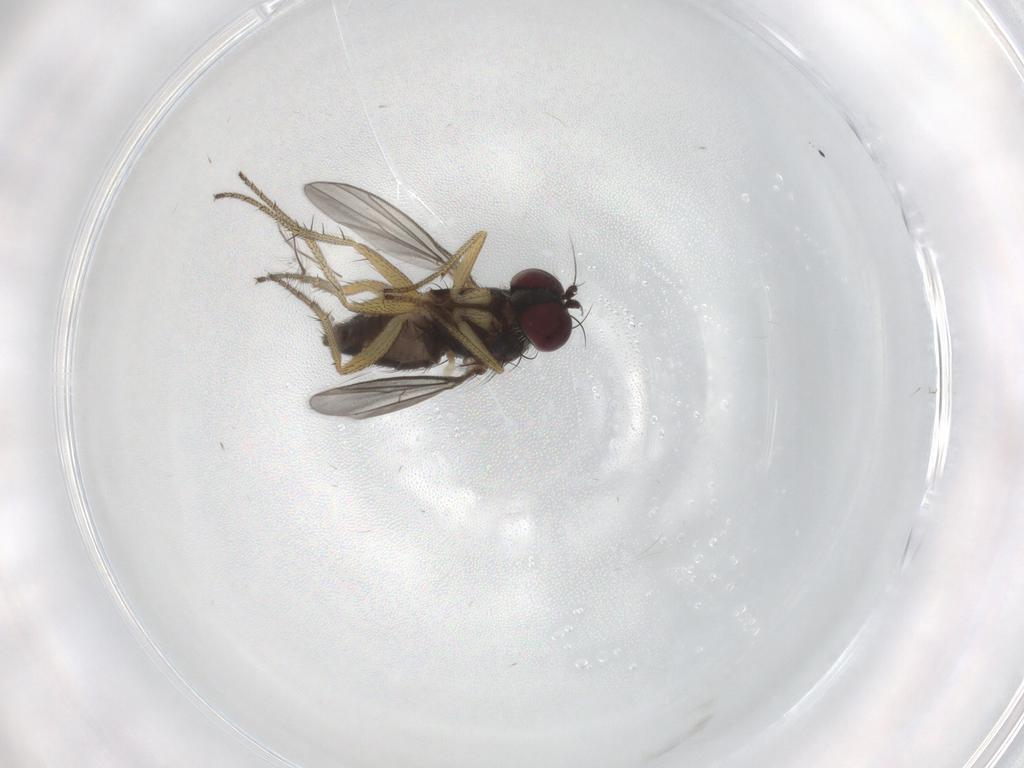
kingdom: Animalia
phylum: Arthropoda
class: Insecta
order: Diptera
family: Chironomidae
